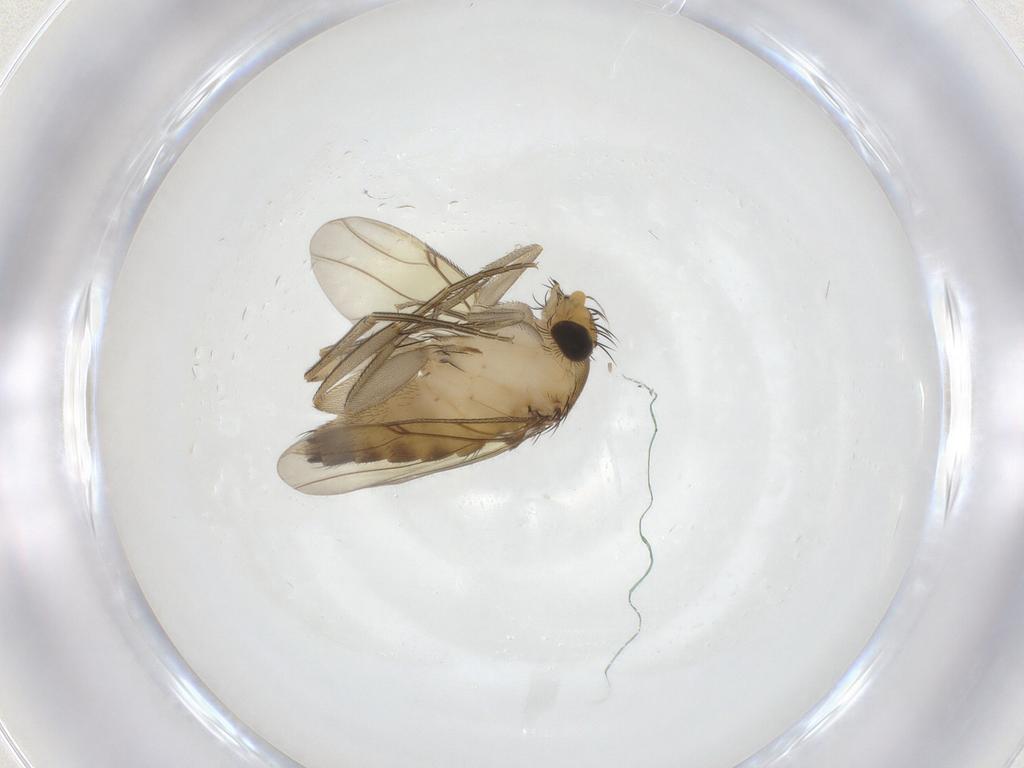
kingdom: Animalia
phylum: Arthropoda
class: Insecta
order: Diptera
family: Phoridae
